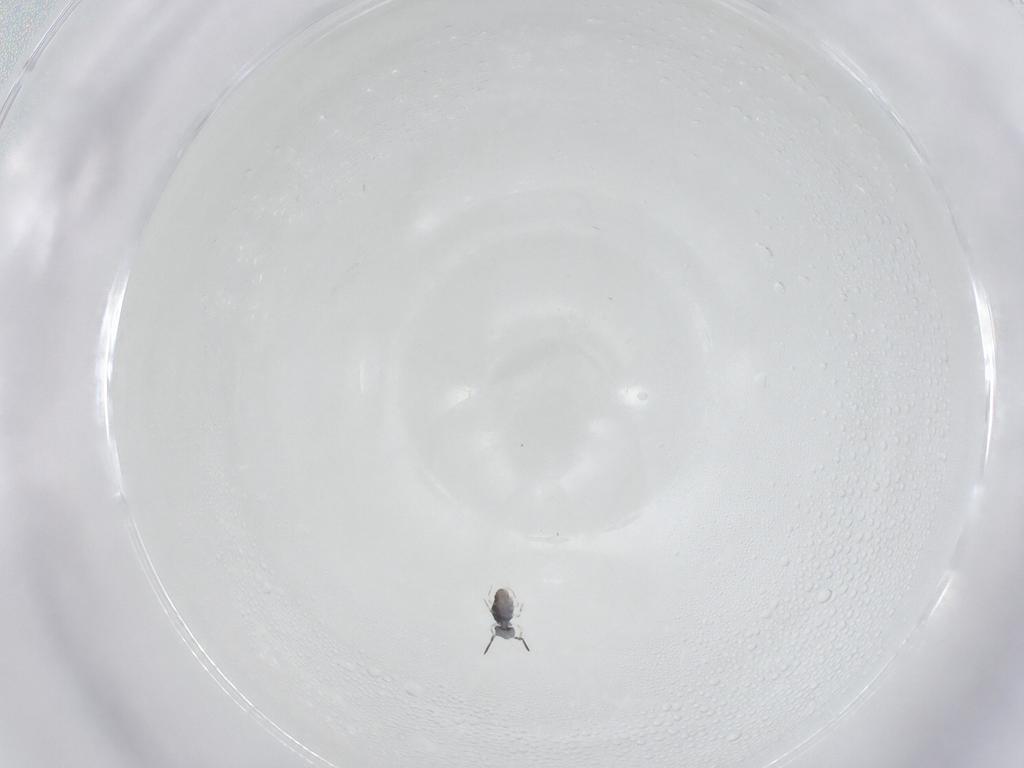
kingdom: Animalia
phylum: Arthropoda
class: Collembola
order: Symphypleona
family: Katiannidae
